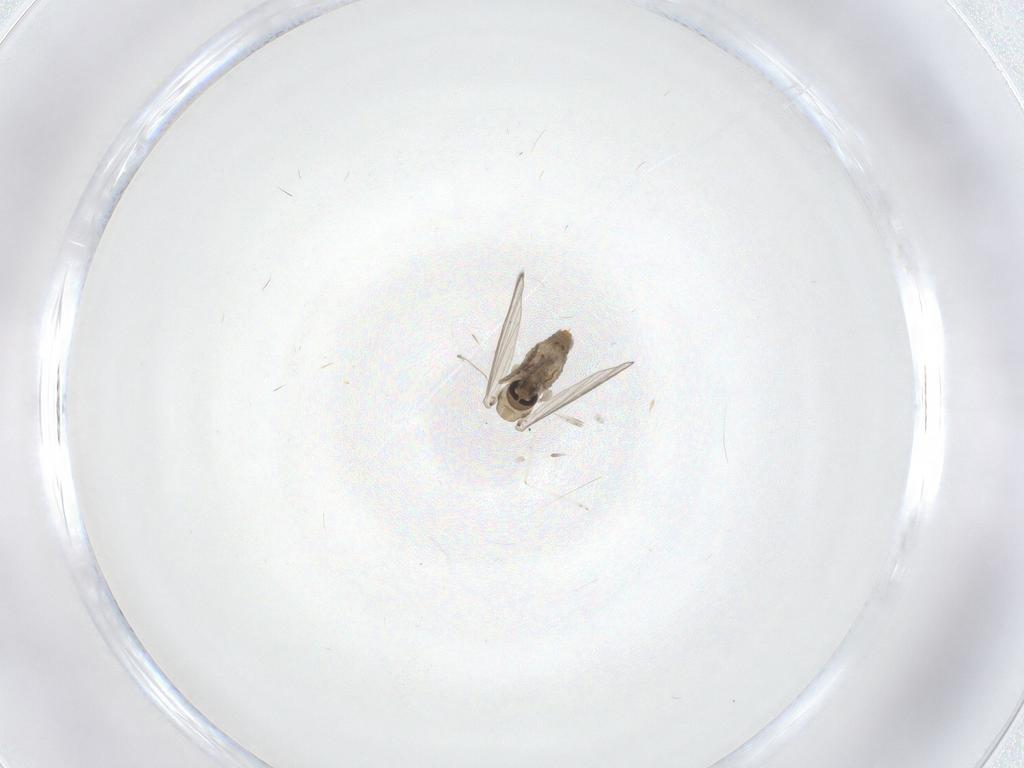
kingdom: Animalia
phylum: Arthropoda
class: Insecta
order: Diptera
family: Psychodidae
